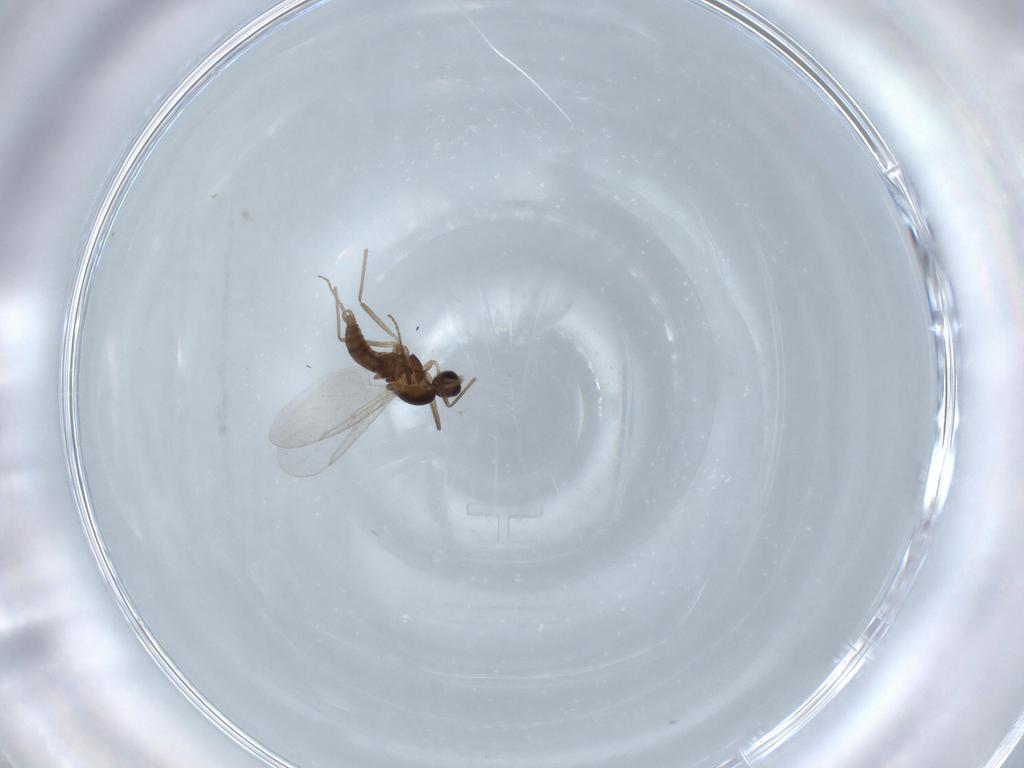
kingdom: Animalia
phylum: Arthropoda
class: Insecta
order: Diptera
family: Cecidomyiidae
